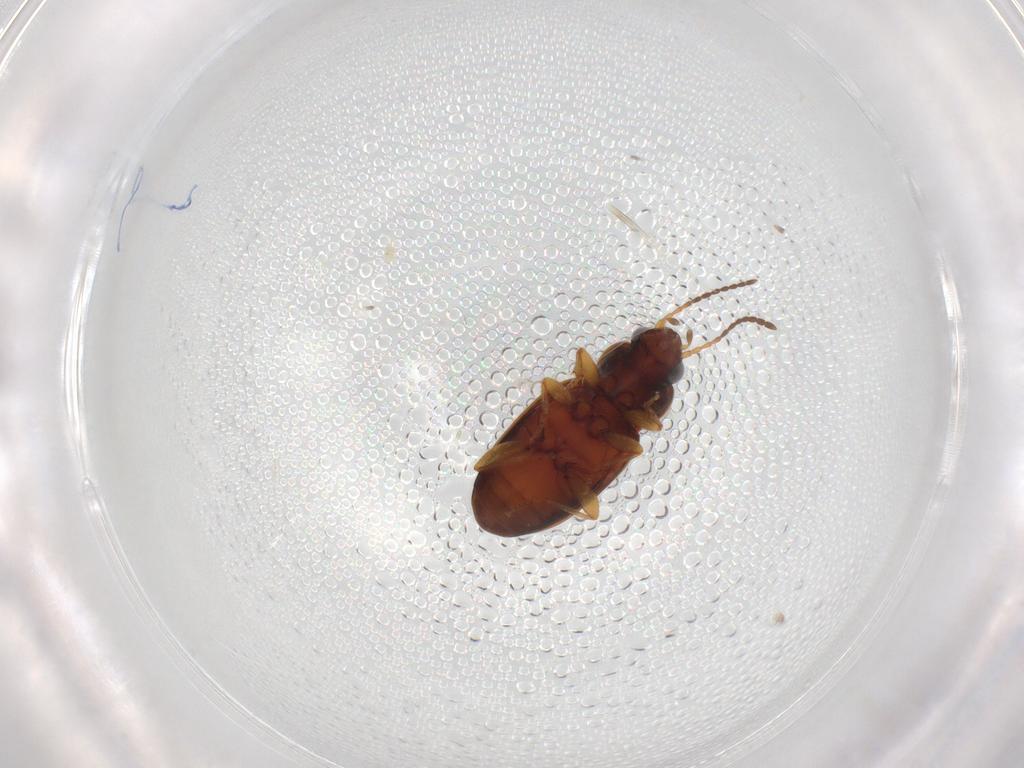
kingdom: Animalia
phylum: Arthropoda
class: Insecta
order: Coleoptera
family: Carabidae
